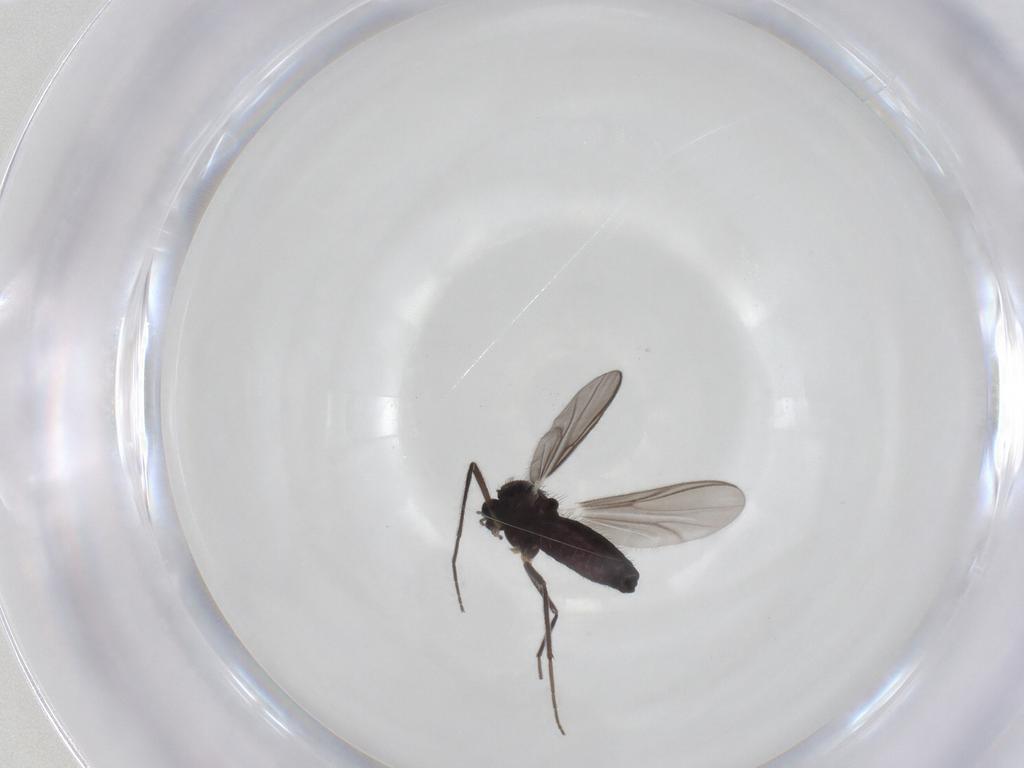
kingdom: Animalia
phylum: Arthropoda
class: Insecta
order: Diptera
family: Chironomidae
